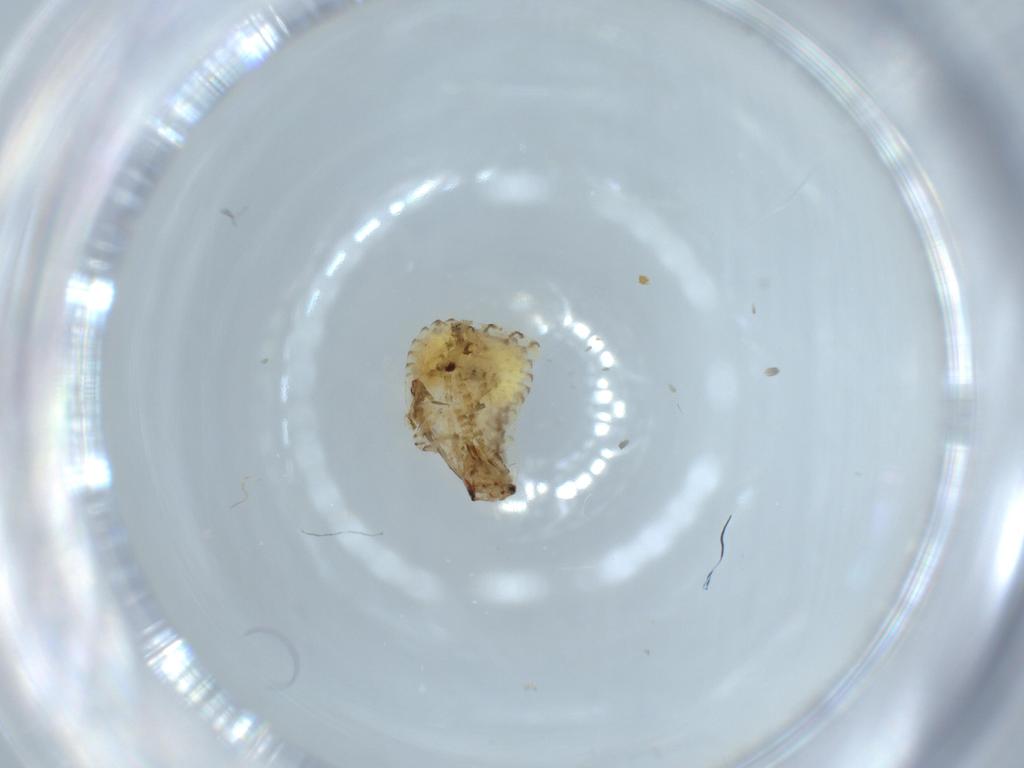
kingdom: Animalia
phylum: Arthropoda
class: Insecta
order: Blattodea
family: Ectobiidae
